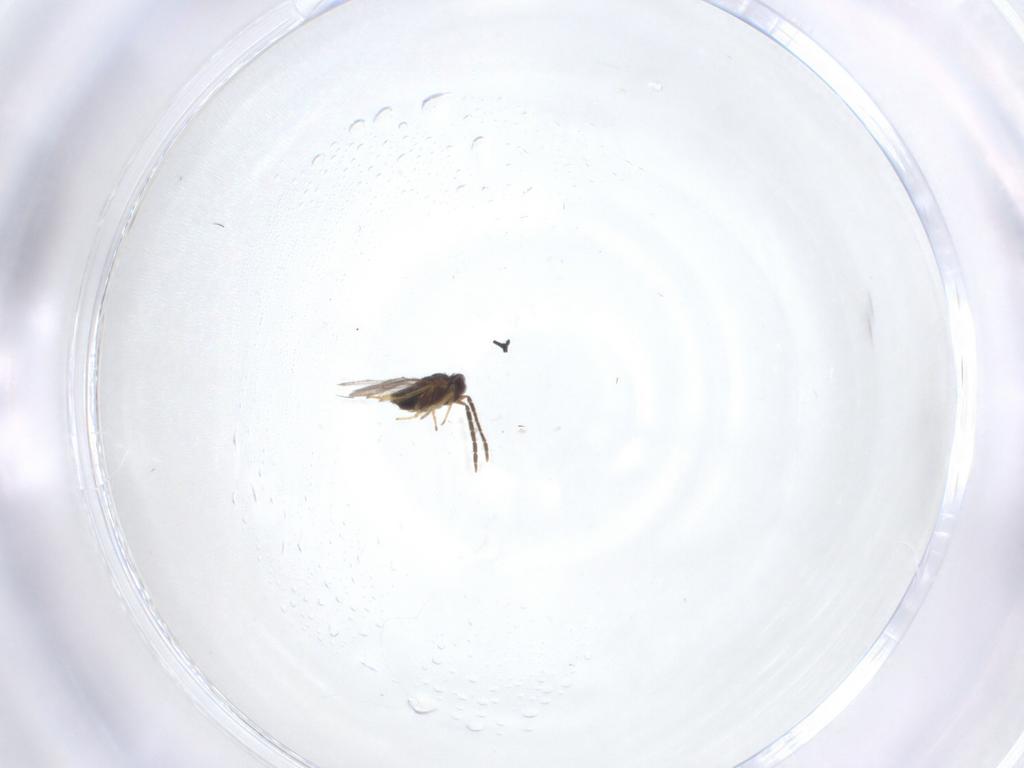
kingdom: Animalia
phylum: Arthropoda
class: Insecta
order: Hymenoptera
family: Aphelinidae
